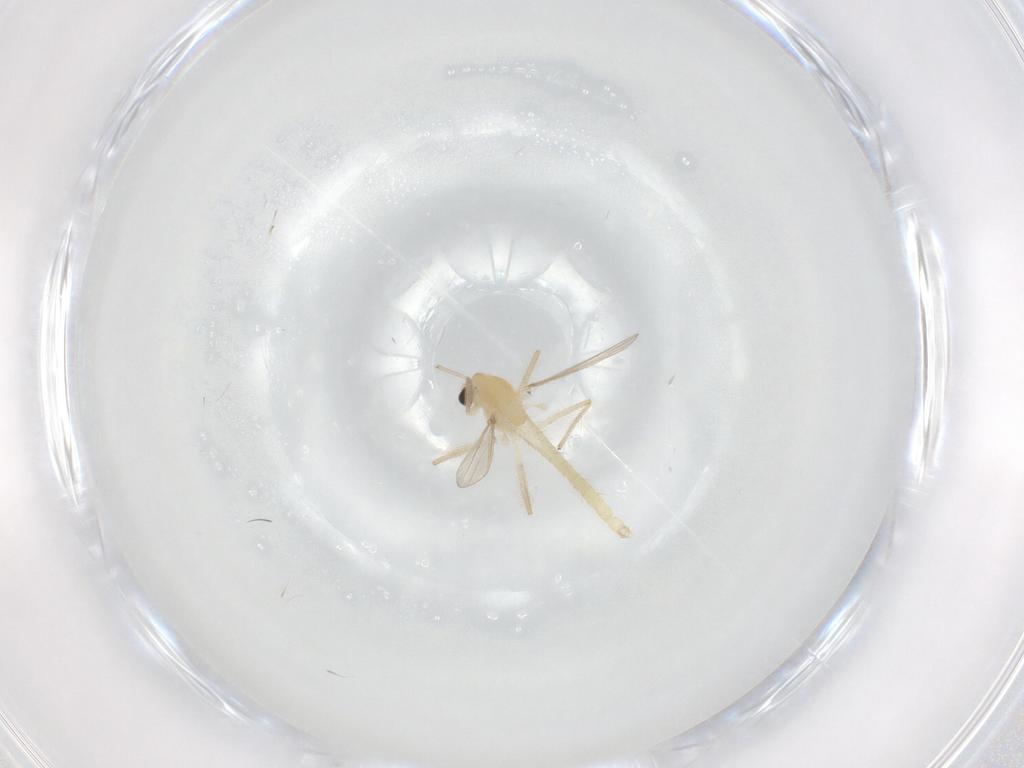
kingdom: Animalia
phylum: Arthropoda
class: Insecta
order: Diptera
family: Chironomidae
